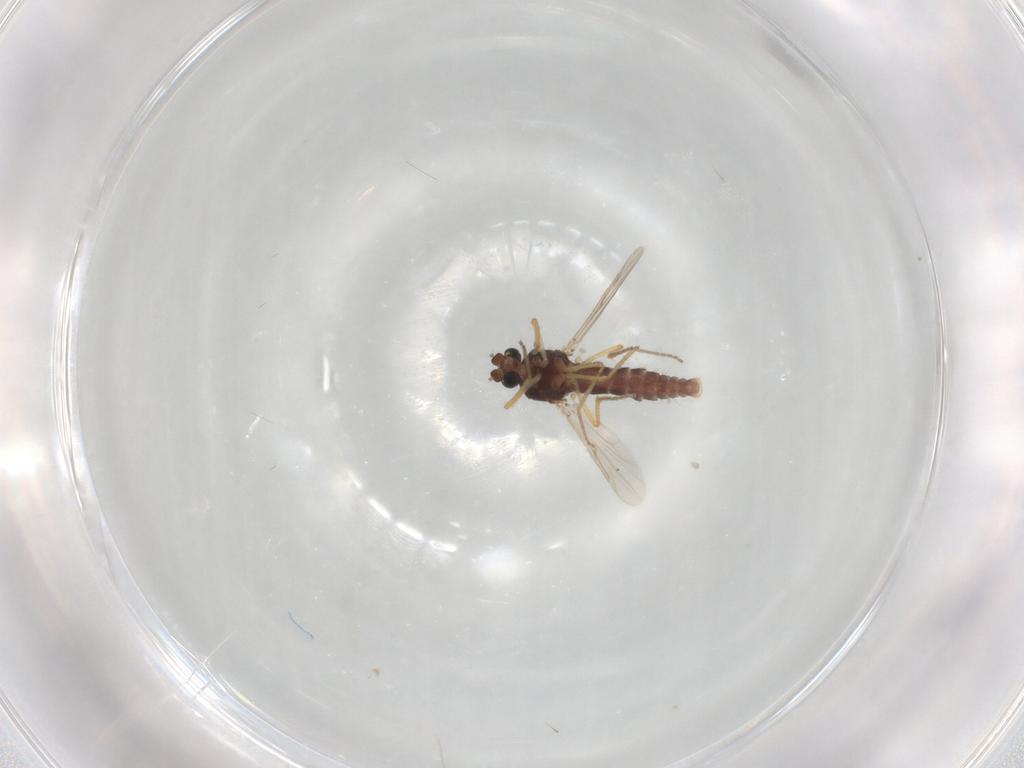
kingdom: Animalia
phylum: Arthropoda
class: Insecta
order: Diptera
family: Ceratopogonidae
